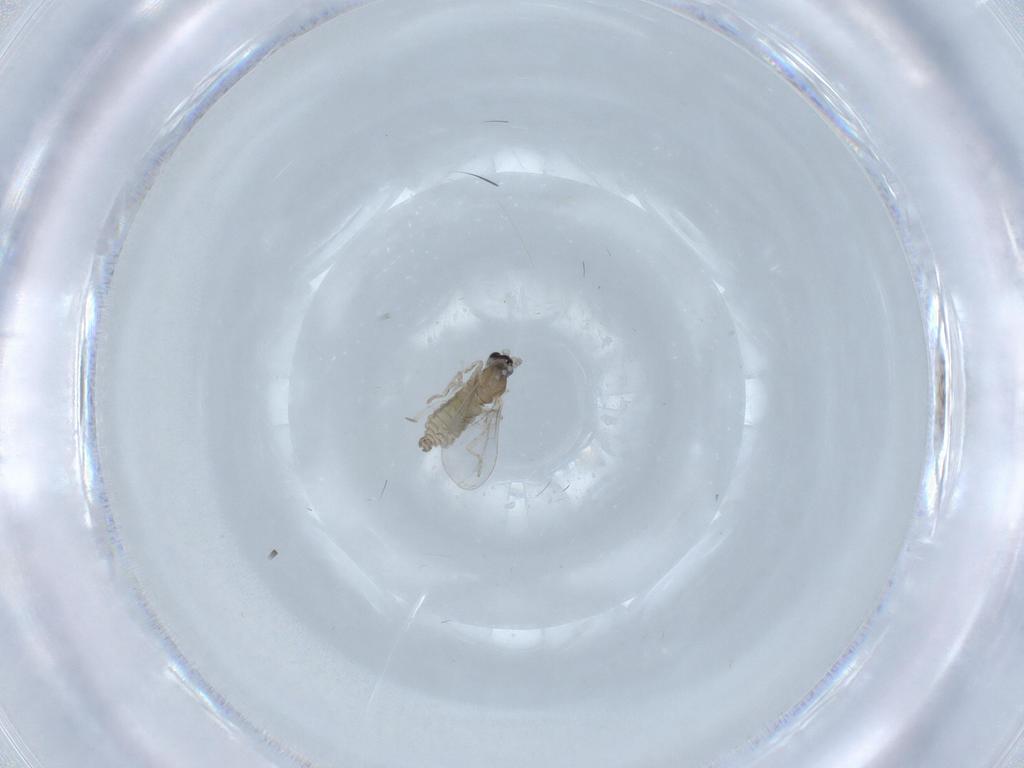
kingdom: Animalia
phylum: Arthropoda
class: Insecta
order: Diptera
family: Cecidomyiidae
